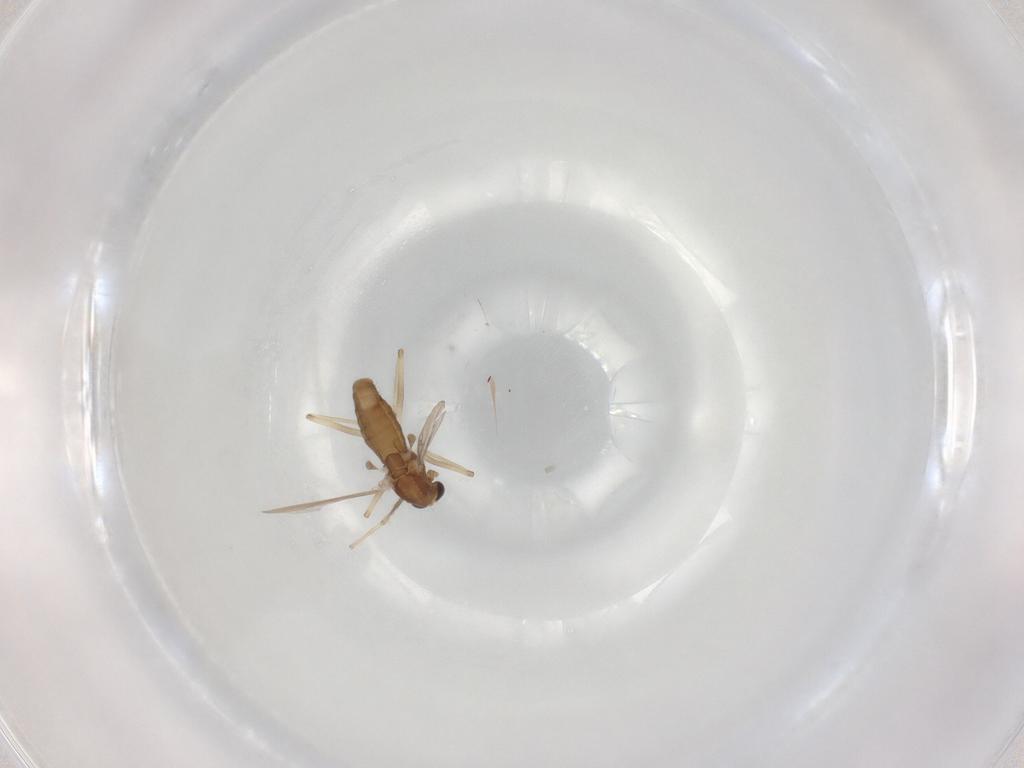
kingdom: Animalia
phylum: Arthropoda
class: Insecta
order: Diptera
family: Chironomidae
